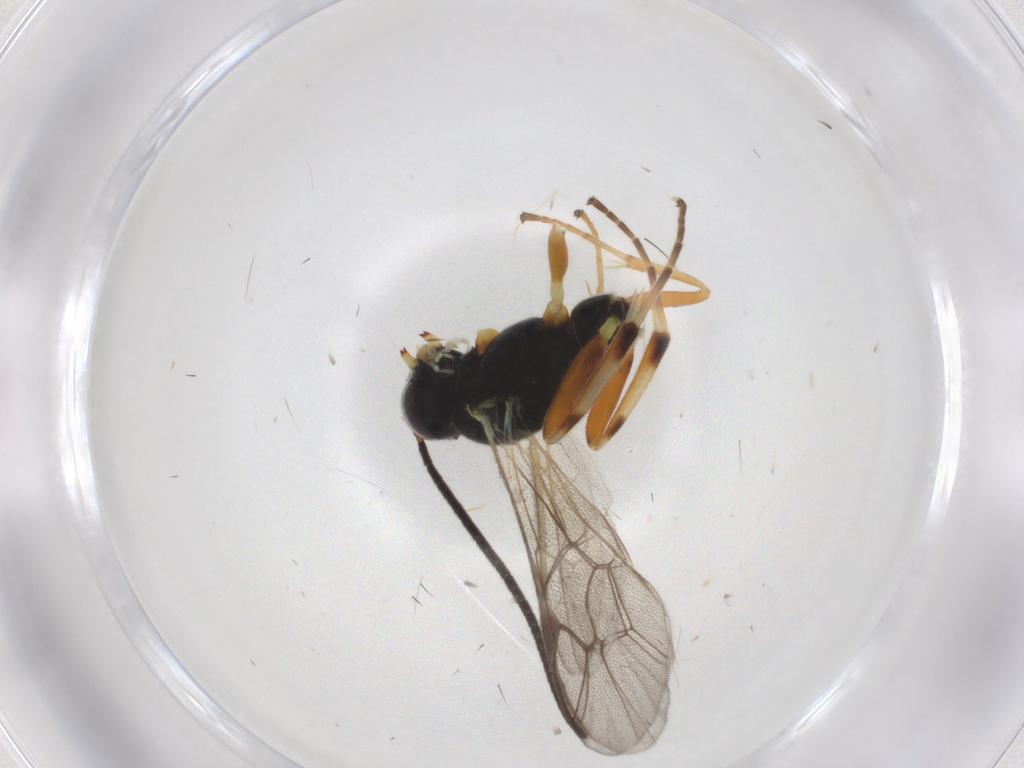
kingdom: Animalia
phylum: Arthropoda
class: Insecta
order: Hymenoptera
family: Ichneumonidae
